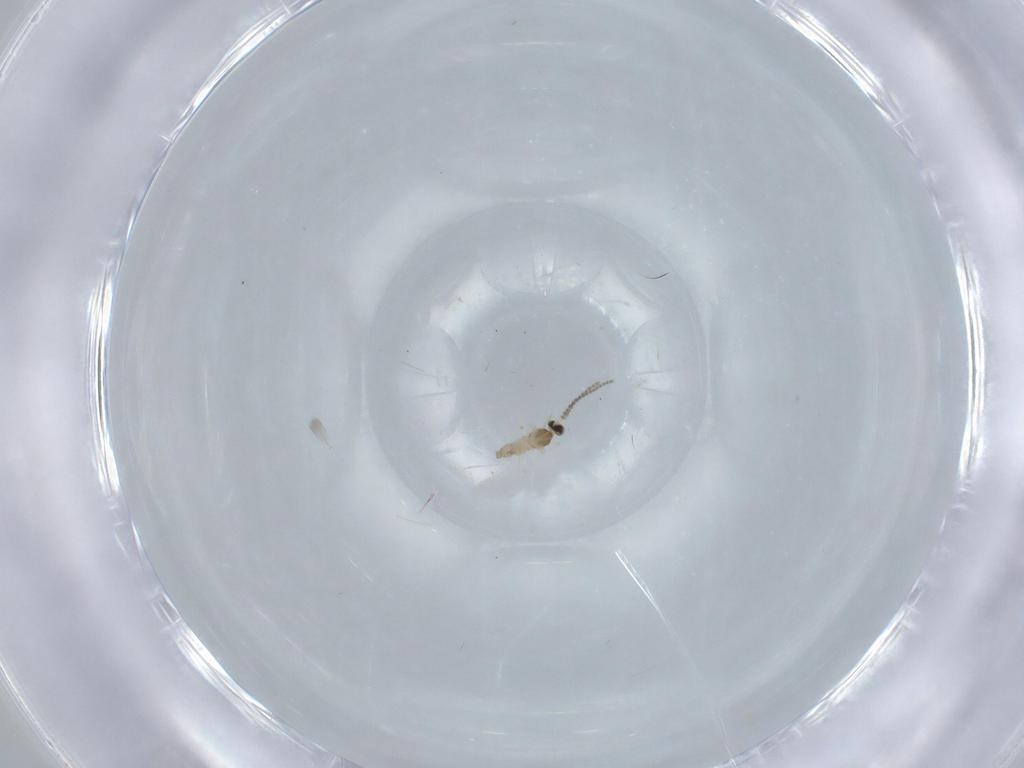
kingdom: Animalia
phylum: Arthropoda
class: Insecta
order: Diptera
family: Cecidomyiidae
